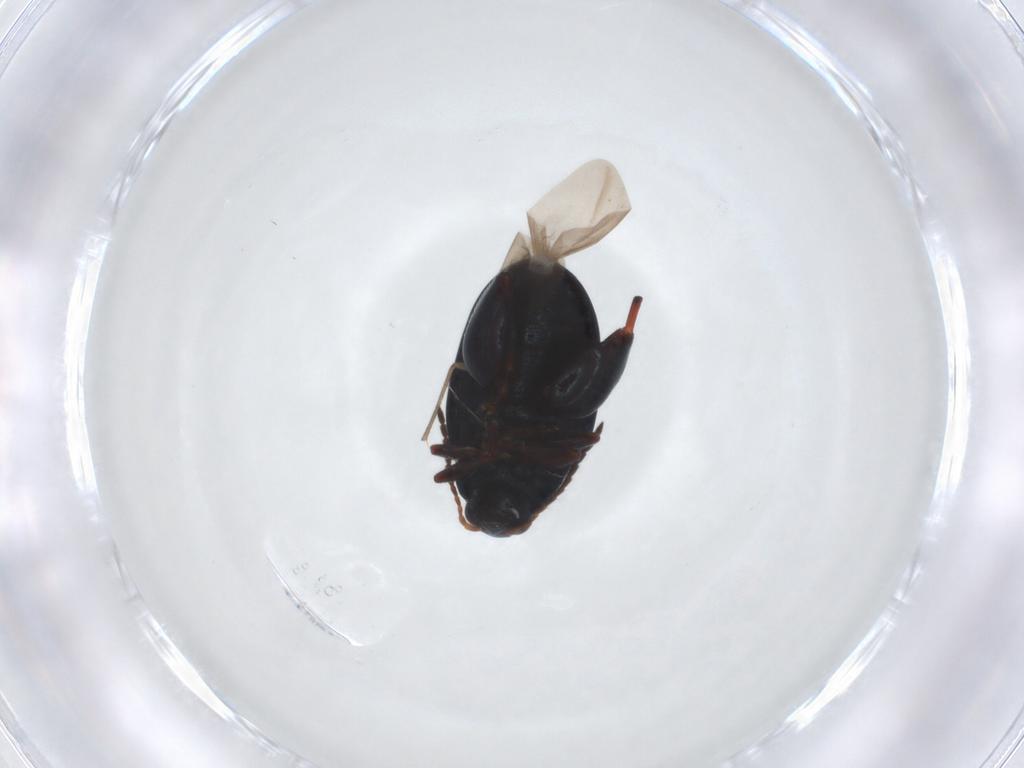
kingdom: Animalia
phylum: Arthropoda
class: Insecta
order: Coleoptera
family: Chrysomelidae
